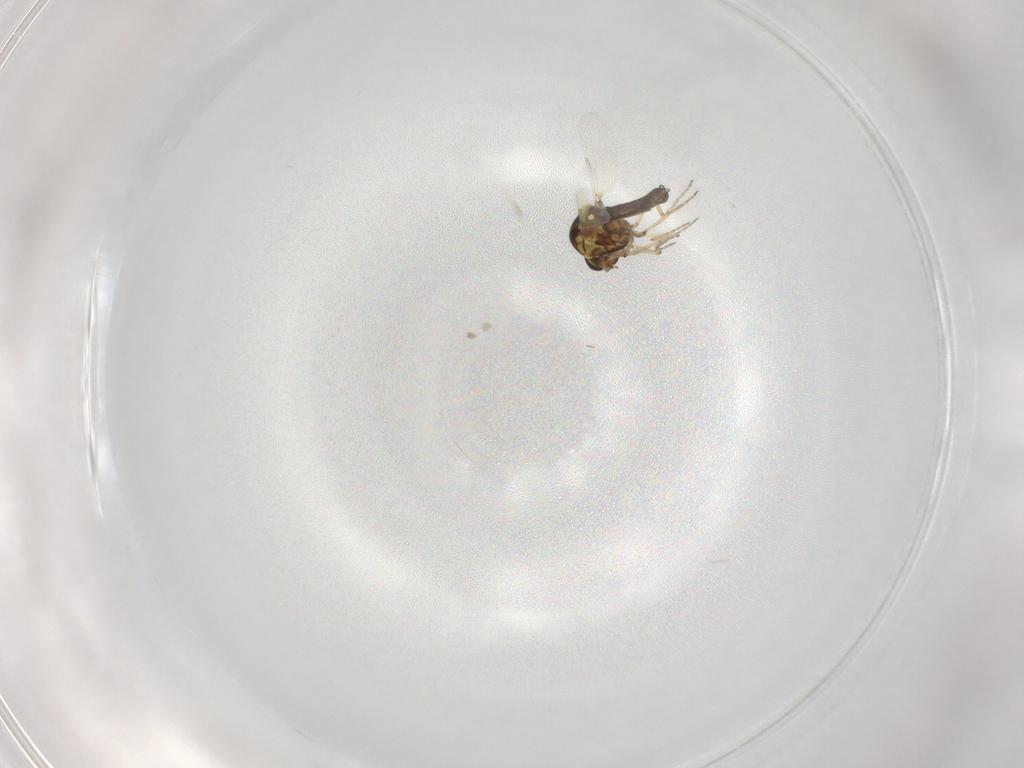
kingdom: Animalia
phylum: Arthropoda
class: Insecta
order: Diptera
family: Ceratopogonidae
